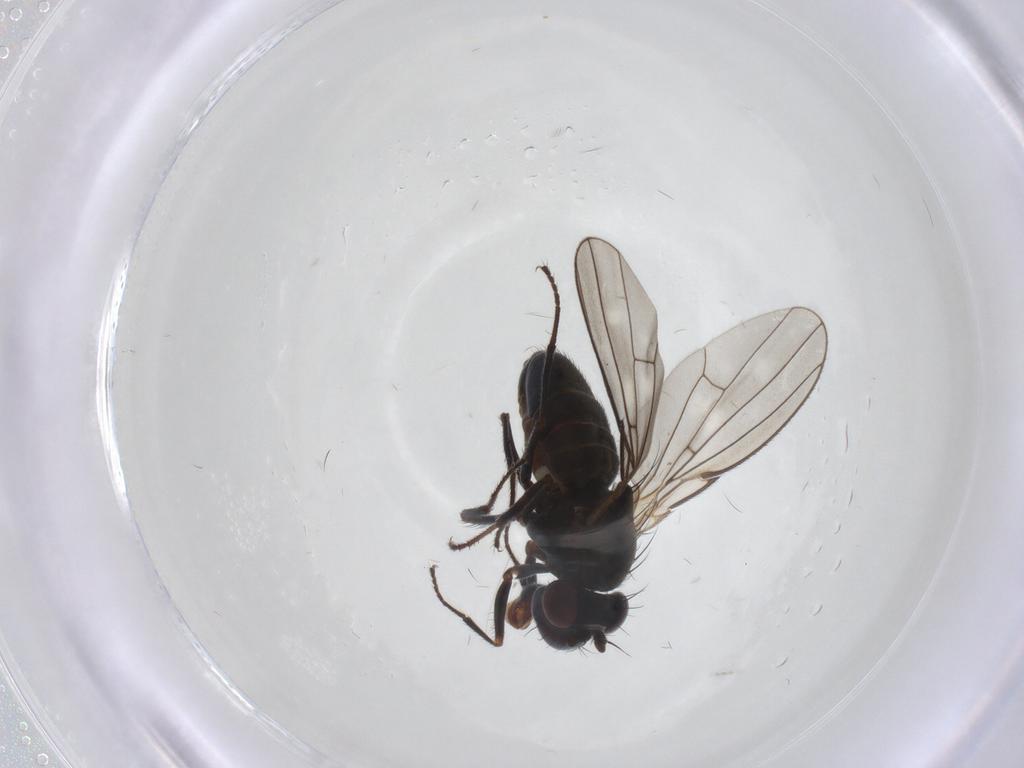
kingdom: Animalia
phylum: Arthropoda
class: Insecta
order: Diptera
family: Ephydridae
